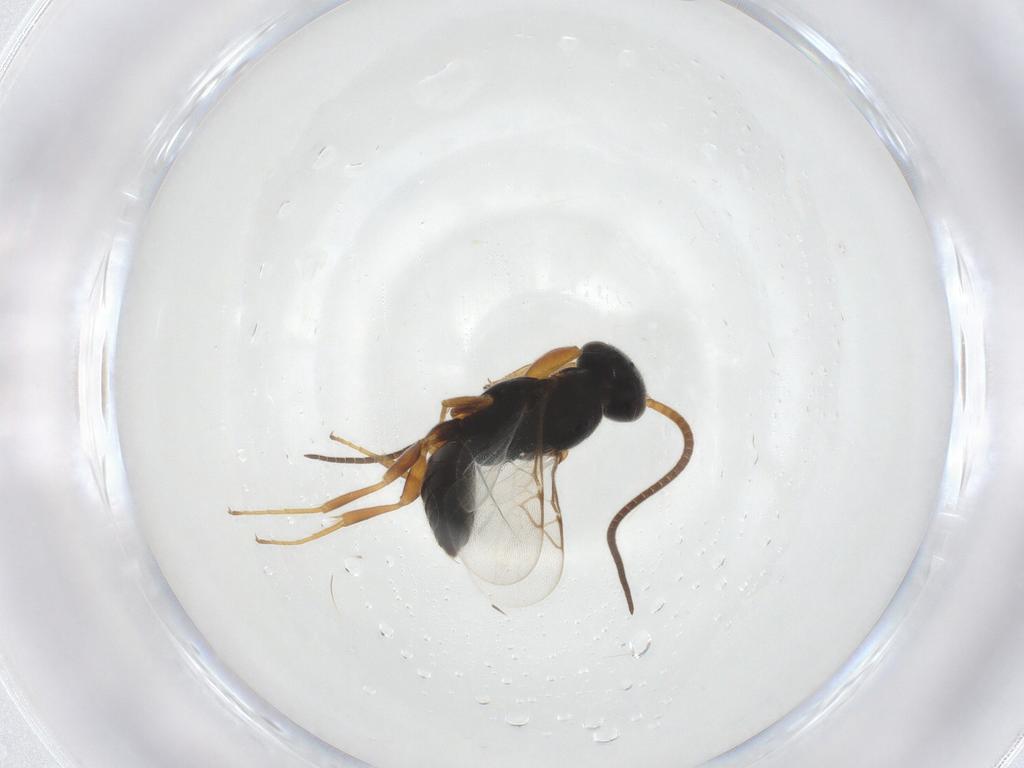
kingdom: Animalia
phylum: Arthropoda
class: Insecta
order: Hymenoptera
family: Sclerogibbidae
